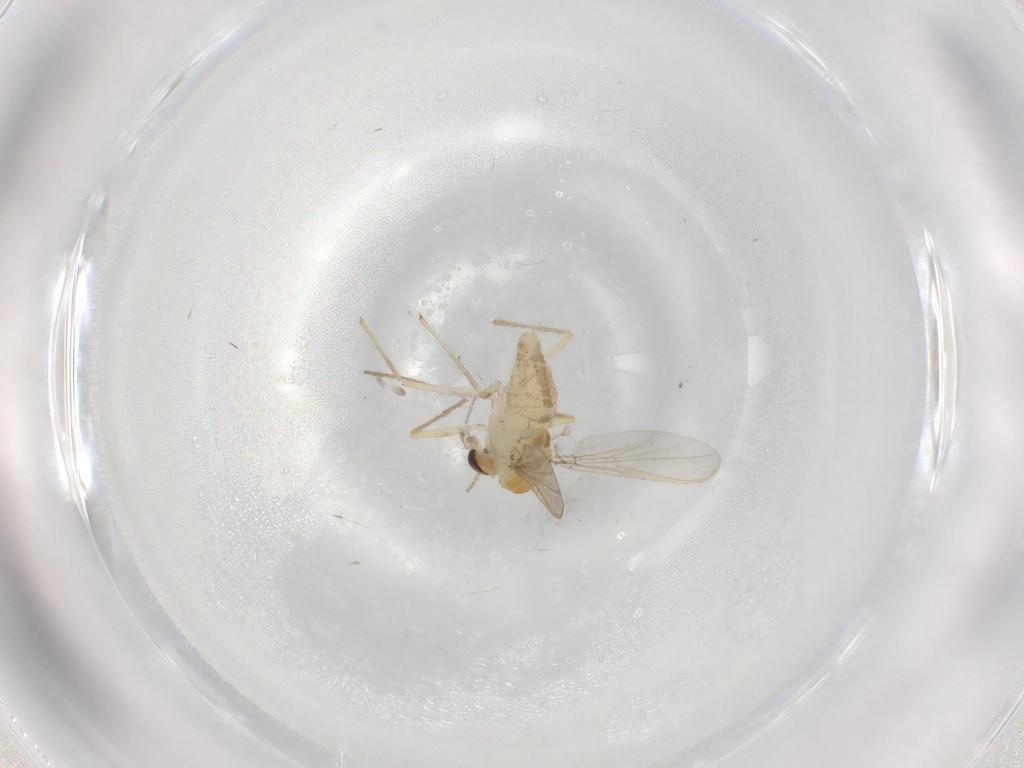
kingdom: Animalia
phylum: Arthropoda
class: Insecta
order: Diptera
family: Chironomidae
